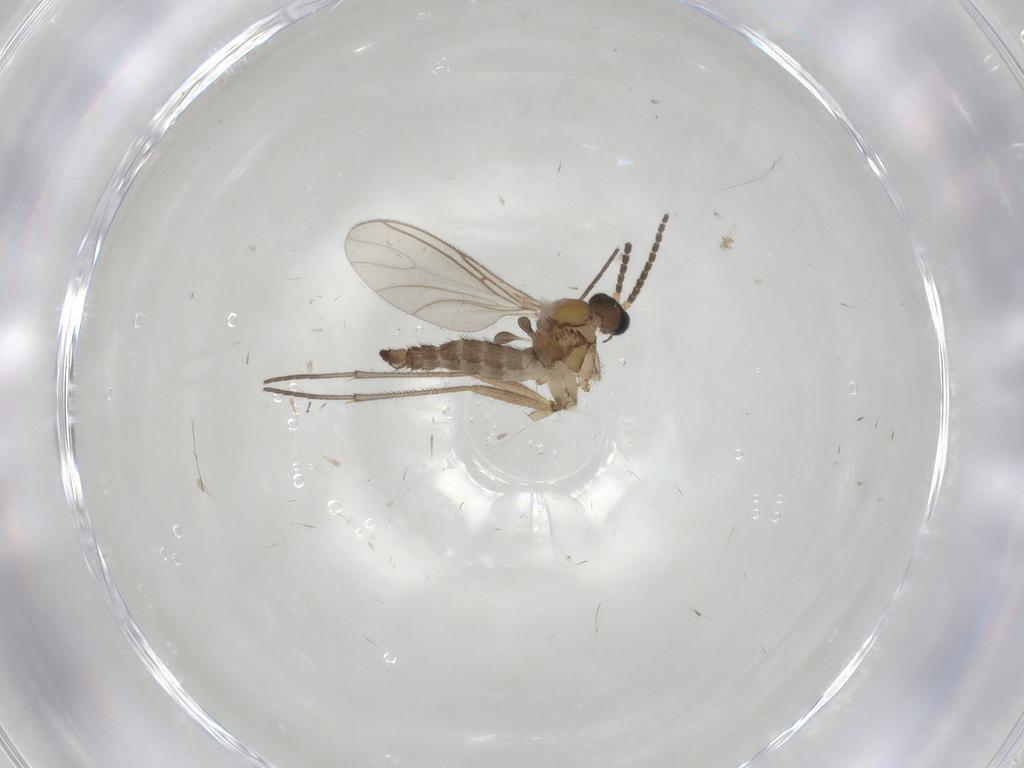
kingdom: Animalia
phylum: Arthropoda
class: Insecta
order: Diptera
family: Sciaridae
